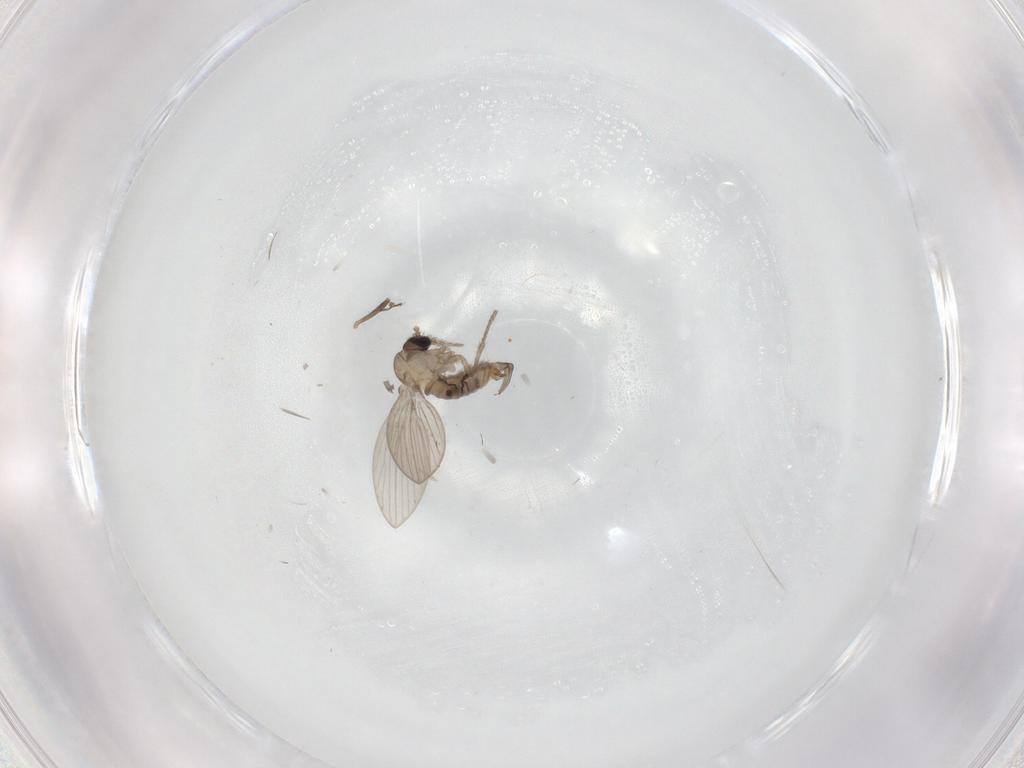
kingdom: Animalia
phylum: Arthropoda
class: Insecta
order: Diptera
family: Psychodidae
